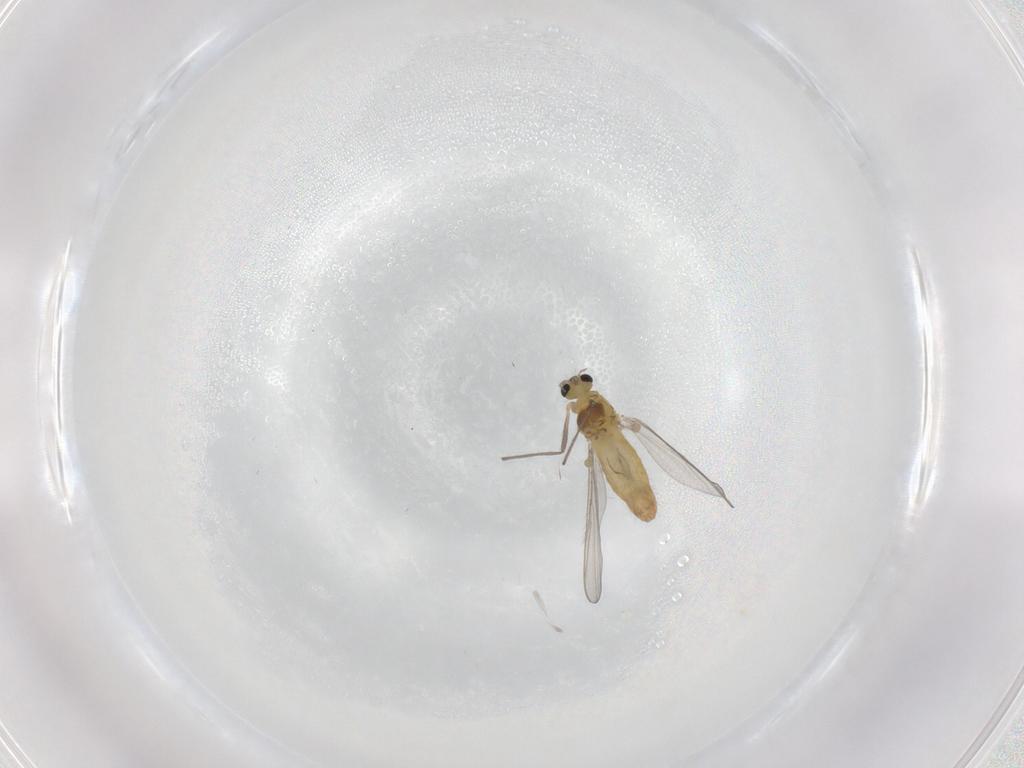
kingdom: Animalia
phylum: Arthropoda
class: Insecta
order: Diptera
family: Chironomidae
